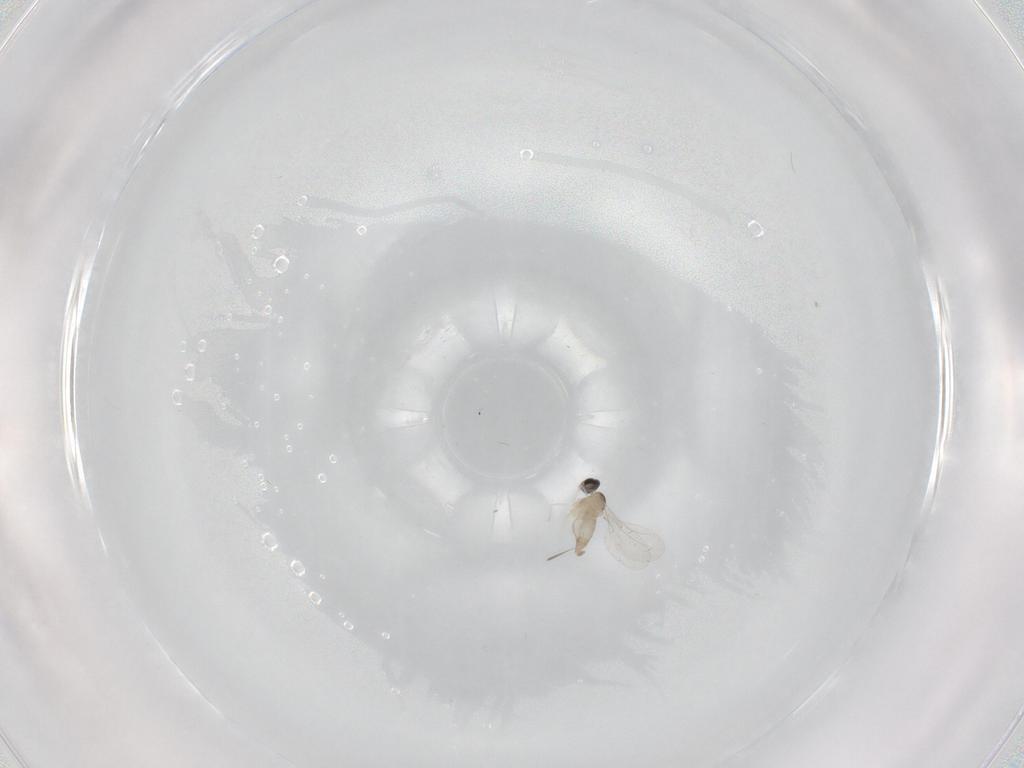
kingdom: Animalia
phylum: Arthropoda
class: Insecta
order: Diptera
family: Cecidomyiidae
